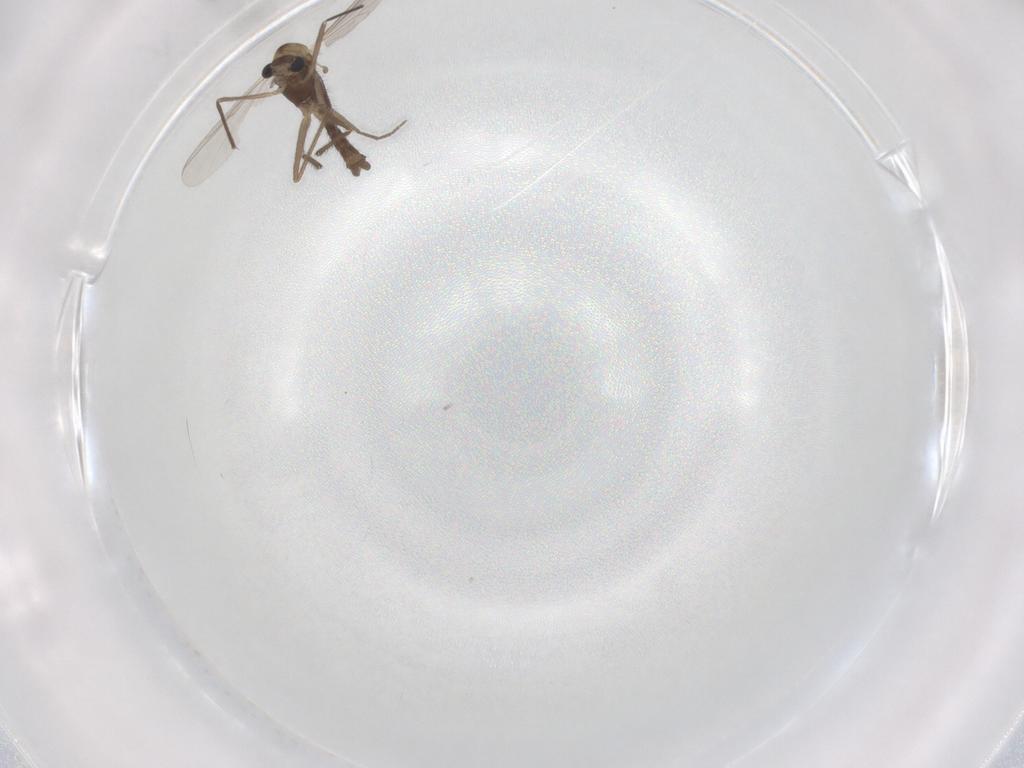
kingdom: Animalia
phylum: Arthropoda
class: Insecta
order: Diptera
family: Chironomidae
